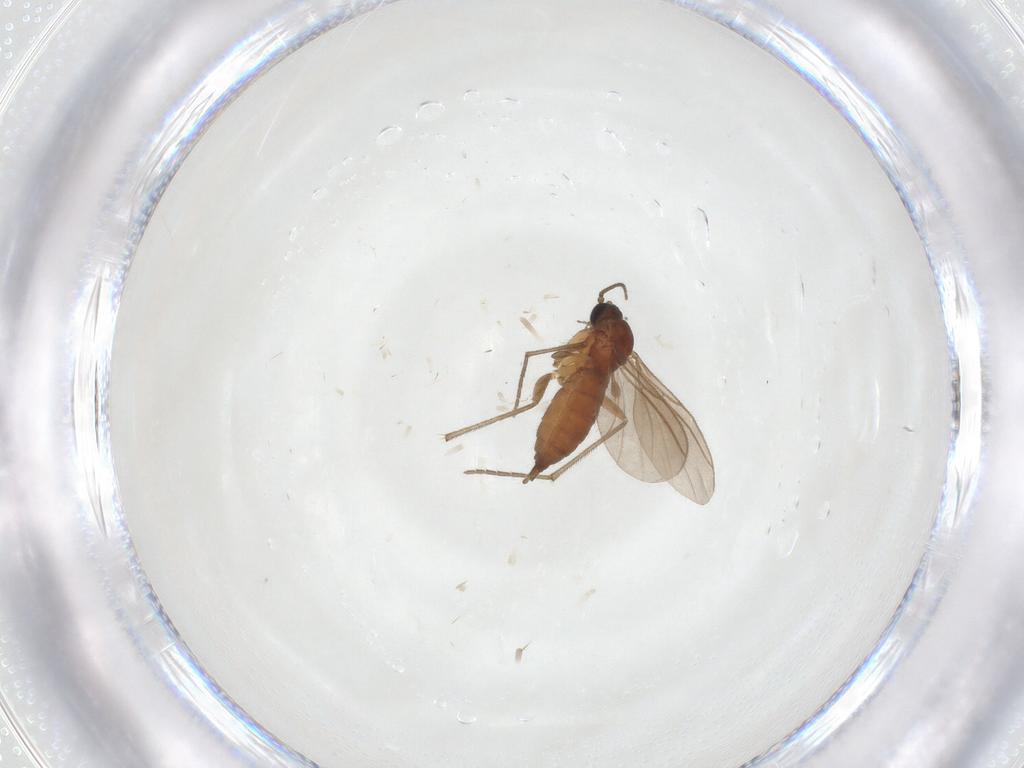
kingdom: Animalia
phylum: Arthropoda
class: Insecta
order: Diptera
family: Sciaridae
